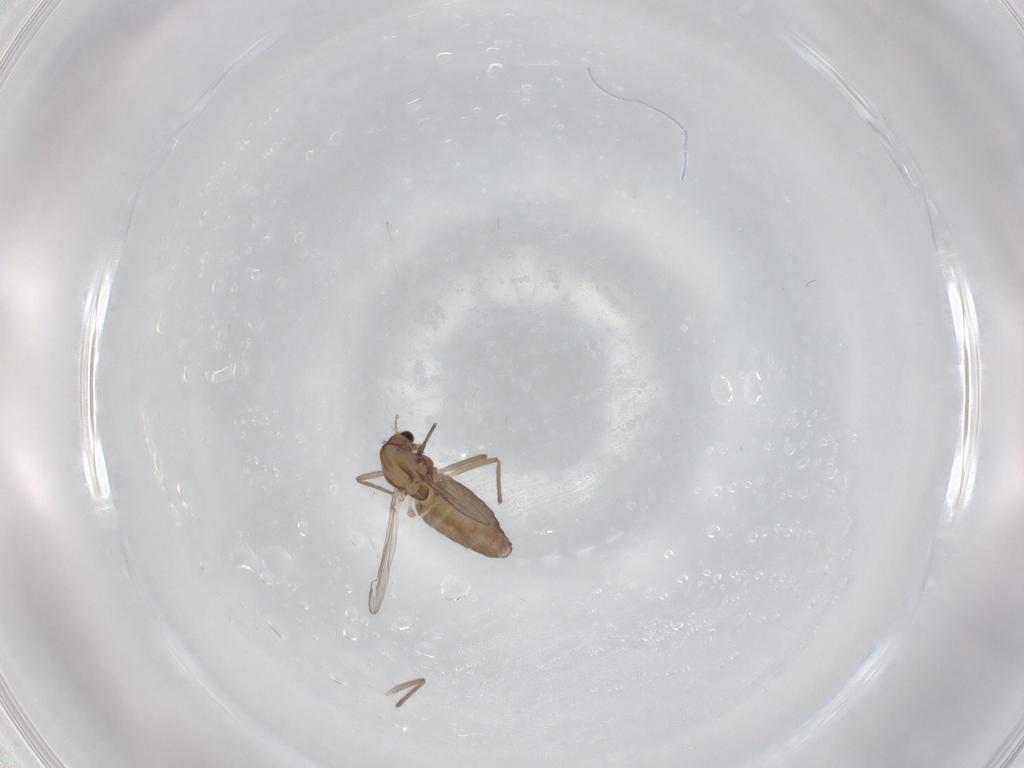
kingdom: Animalia
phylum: Arthropoda
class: Insecta
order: Diptera
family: Chironomidae
